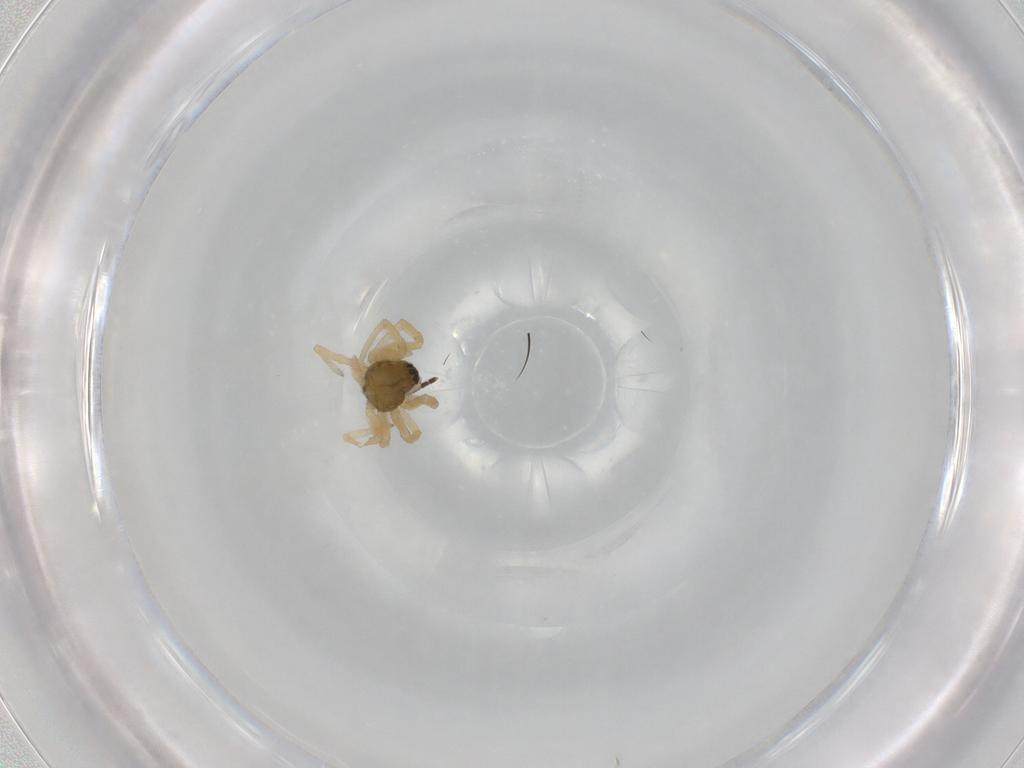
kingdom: Animalia
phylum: Arthropoda
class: Arachnida
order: Araneae
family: Linyphiidae
